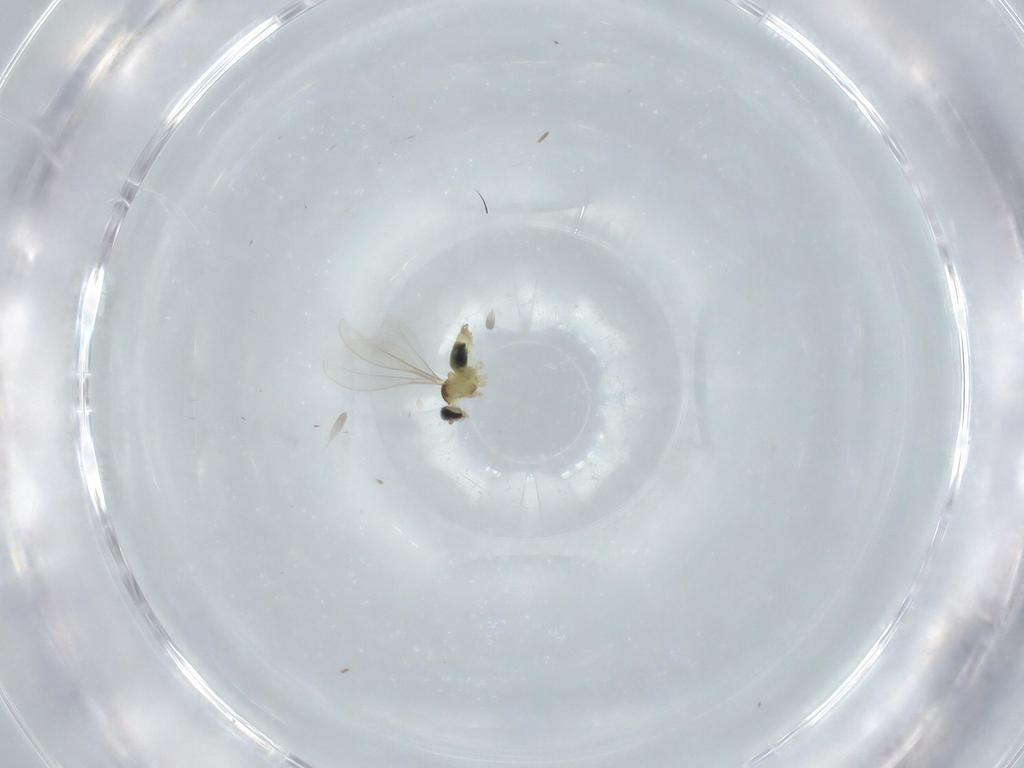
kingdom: Animalia
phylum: Arthropoda
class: Insecta
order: Diptera
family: Cecidomyiidae
